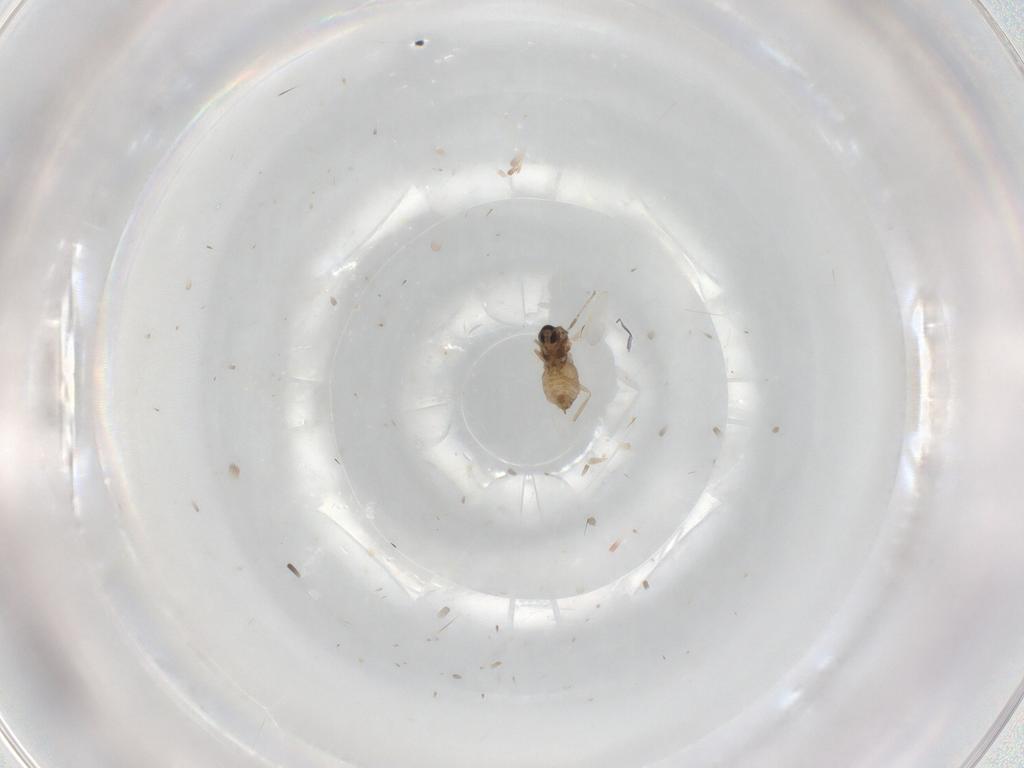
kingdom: Animalia
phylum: Arthropoda
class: Insecta
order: Diptera
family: Cecidomyiidae
